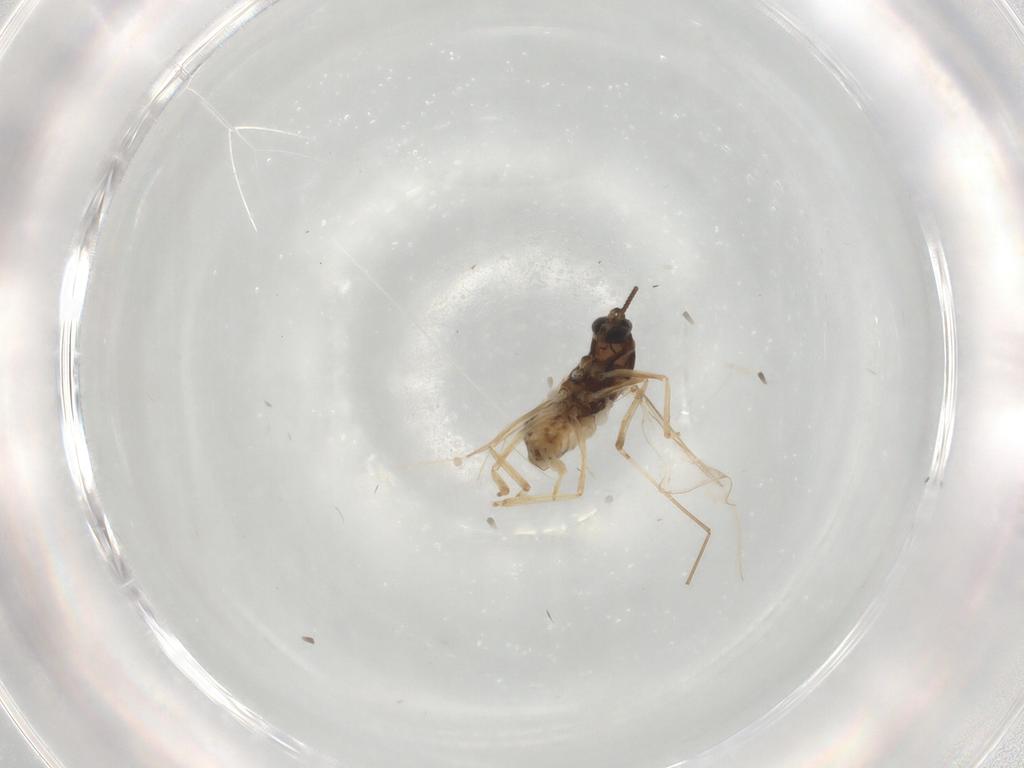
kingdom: Animalia
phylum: Arthropoda
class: Insecta
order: Diptera
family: Cecidomyiidae
